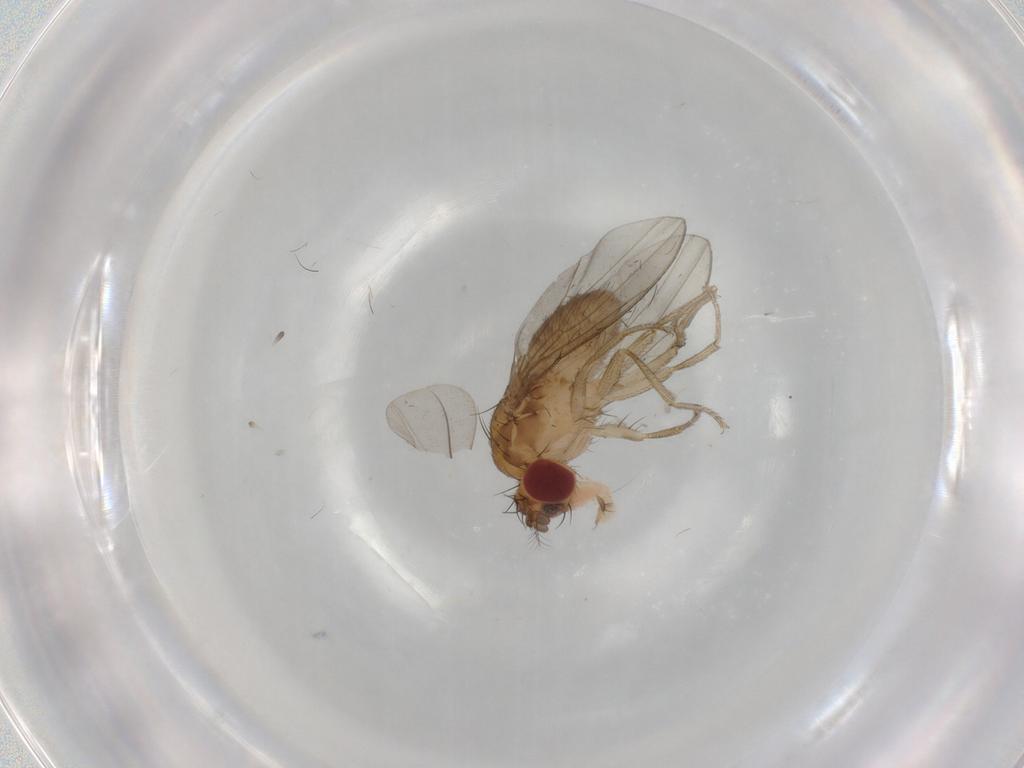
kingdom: Animalia
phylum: Arthropoda
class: Insecta
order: Diptera
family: Drosophilidae
